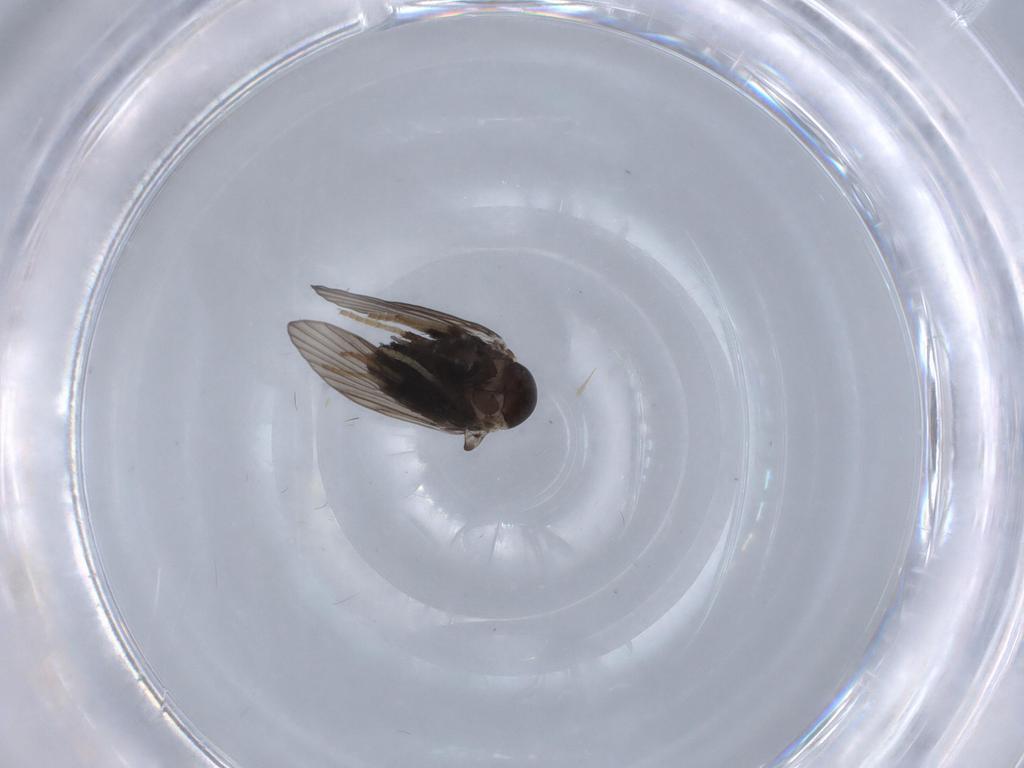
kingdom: Animalia
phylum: Arthropoda
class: Insecta
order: Diptera
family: Psychodidae
